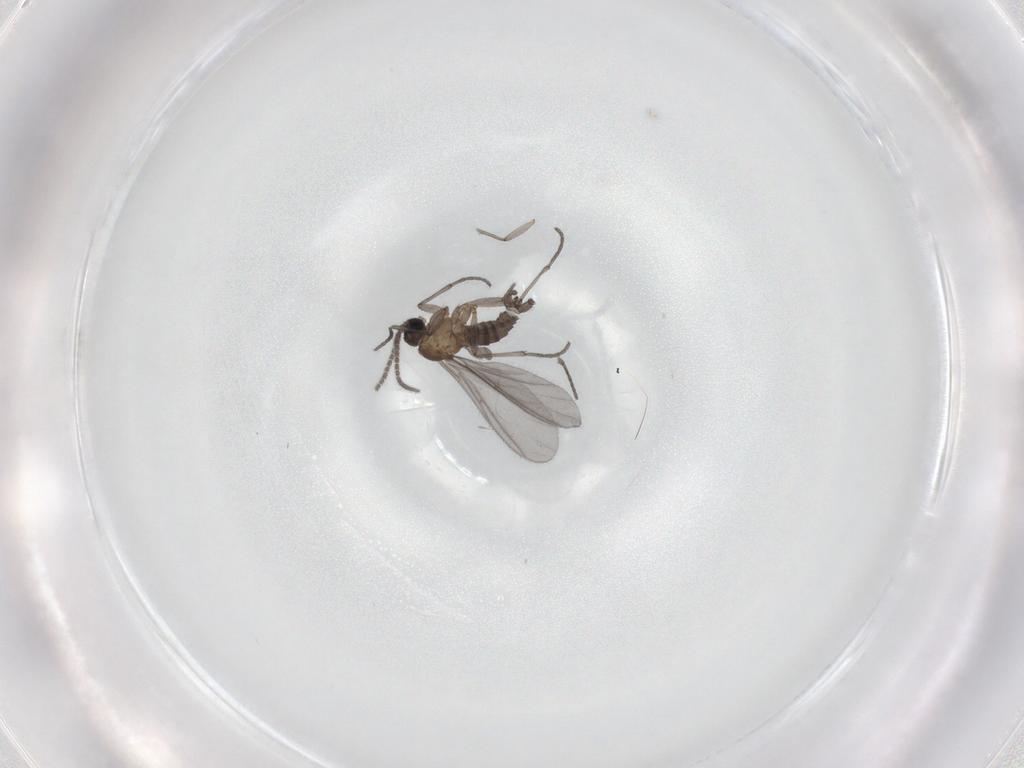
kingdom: Animalia
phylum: Arthropoda
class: Insecta
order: Diptera
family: Sciaridae
